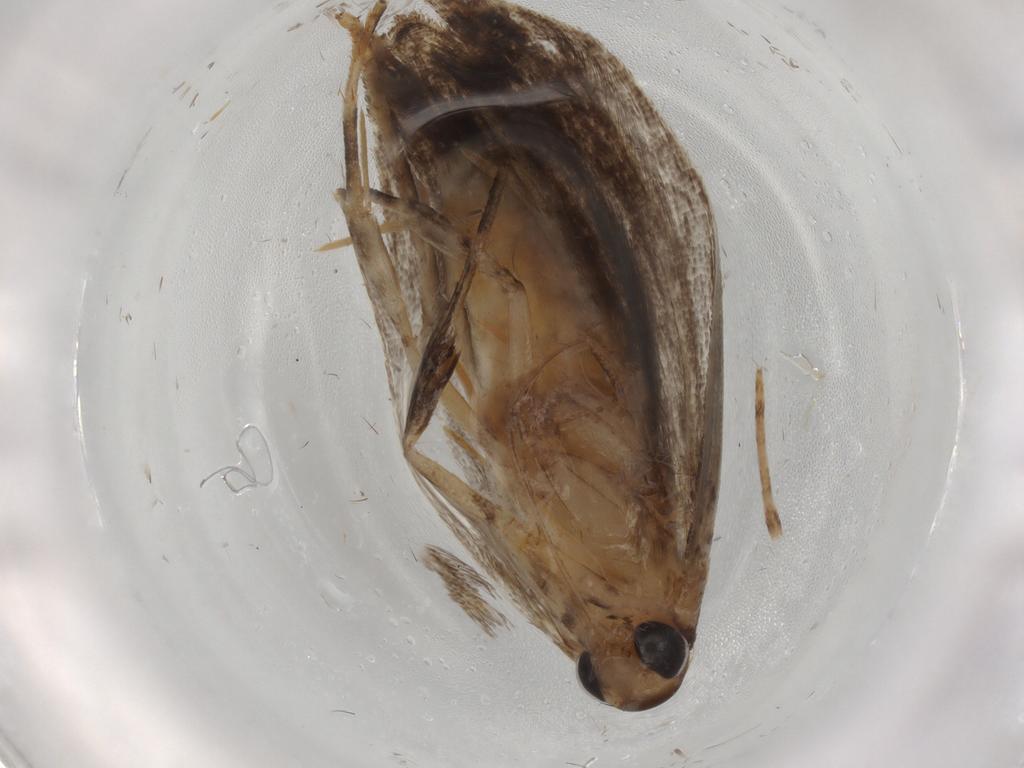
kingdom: Animalia
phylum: Arthropoda
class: Insecta
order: Lepidoptera
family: Gelechiidae
